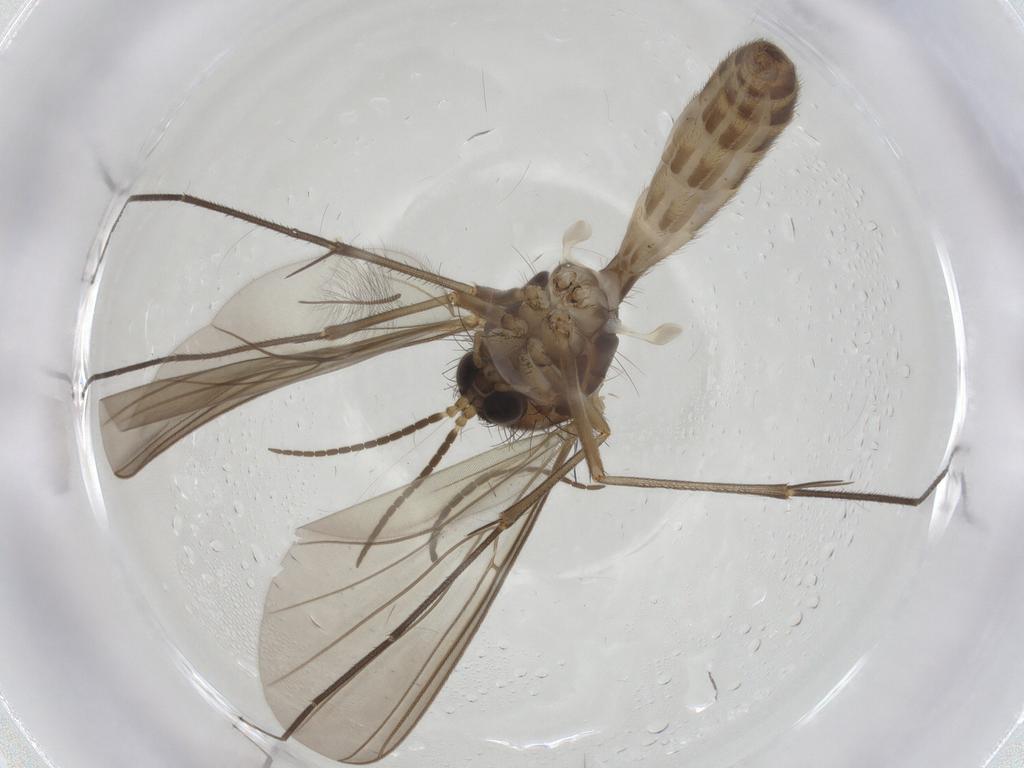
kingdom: Animalia
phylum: Arthropoda
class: Insecta
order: Diptera
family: Mycetophilidae
